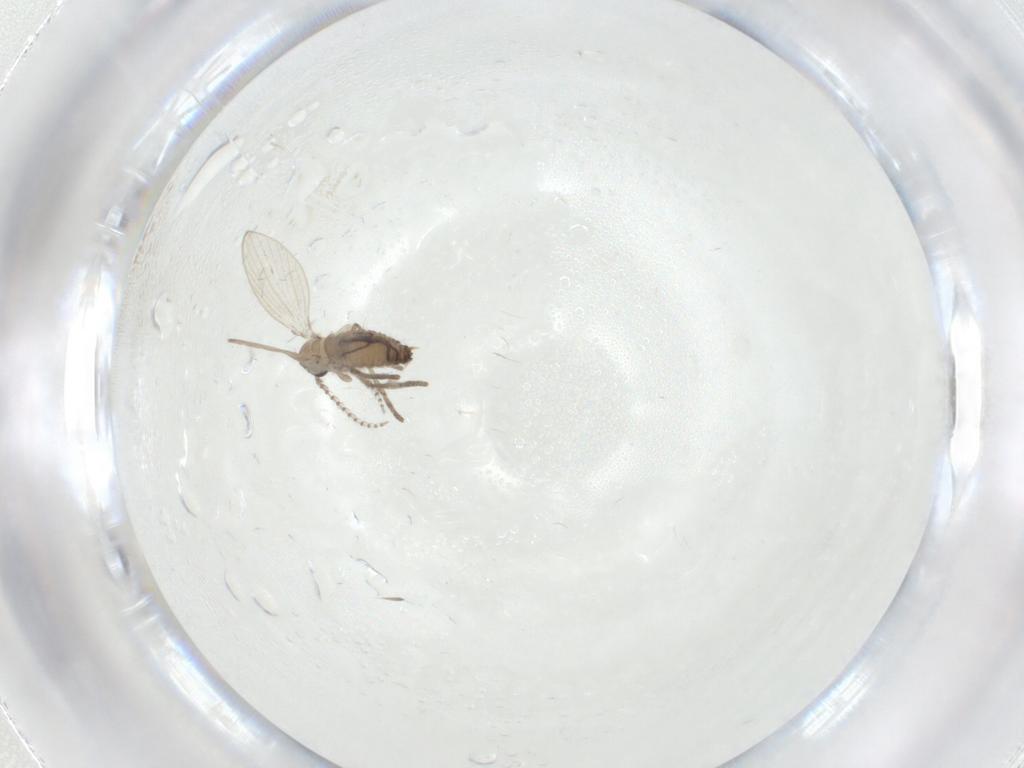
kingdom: Animalia
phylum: Arthropoda
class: Insecta
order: Diptera
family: Psychodidae
